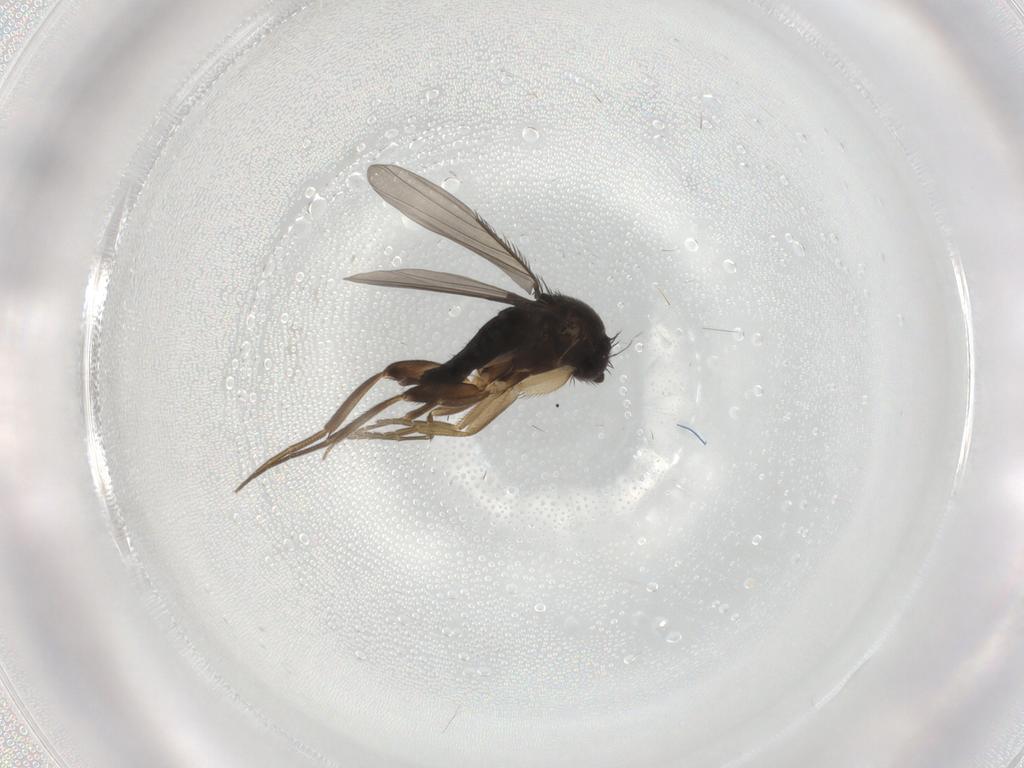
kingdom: Animalia
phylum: Arthropoda
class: Insecta
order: Diptera
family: Phoridae
